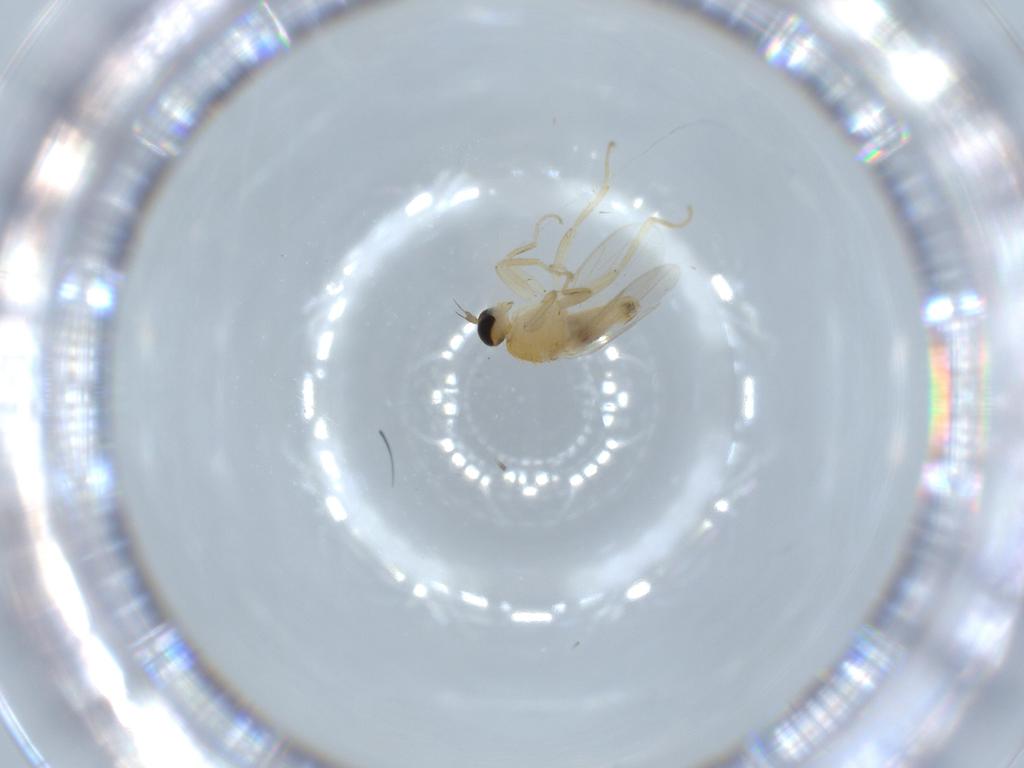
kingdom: Animalia
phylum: Arthropoda
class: Insecta
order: Diptera
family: Hybotidae
